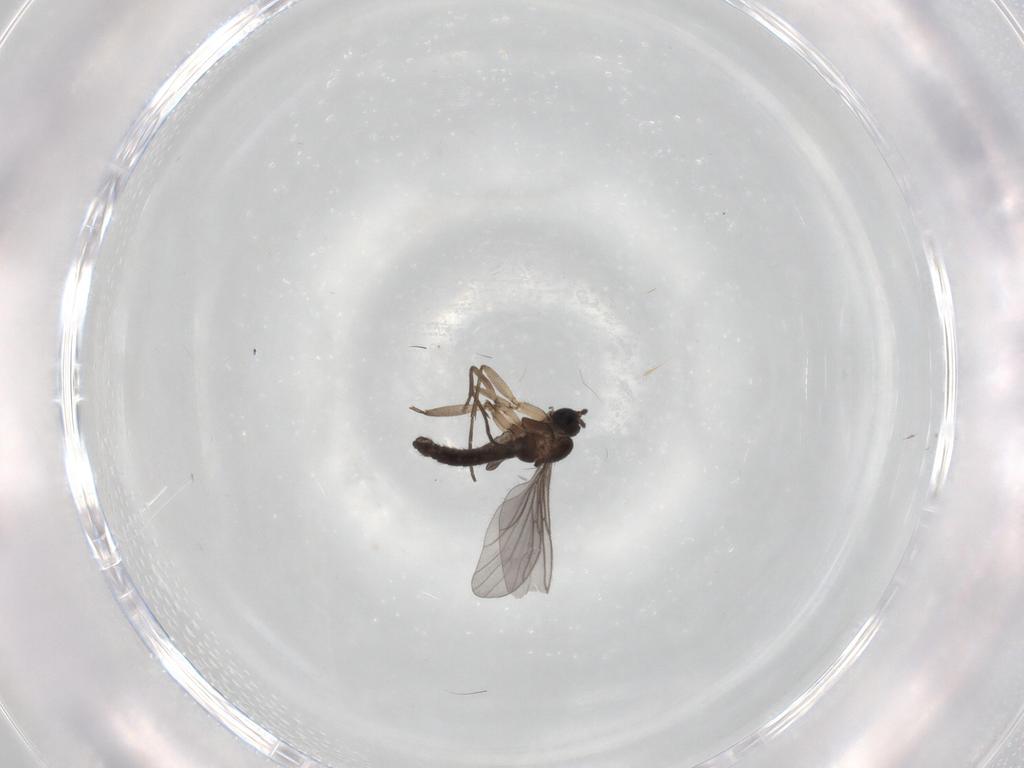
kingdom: Animalia
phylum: Arthropoda
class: Insecta
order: Diptera
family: Sciaridae
